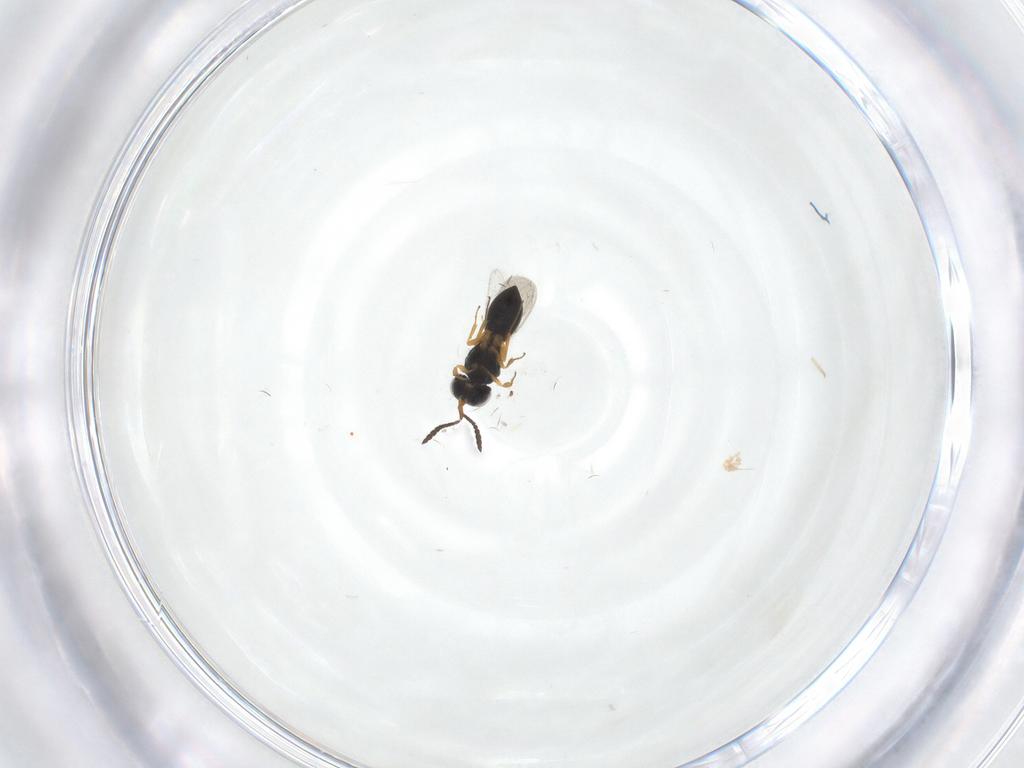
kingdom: Animalia
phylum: Arthropoda
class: Insecta
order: Hymenoptera
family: Scelionidae
